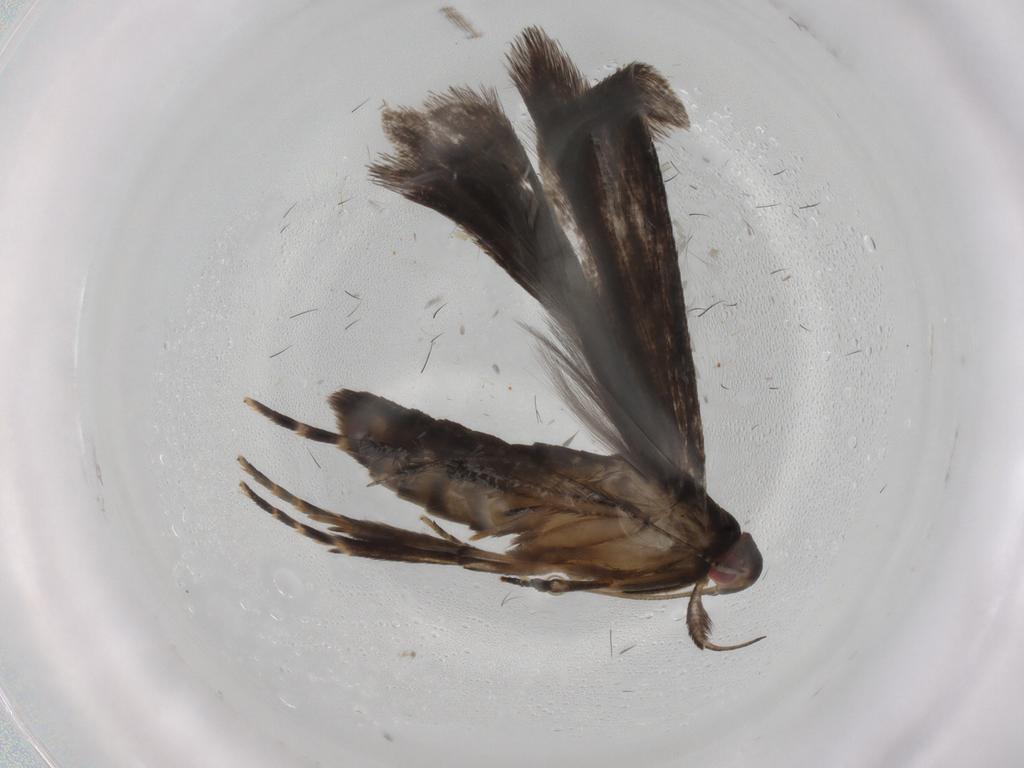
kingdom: Animalia
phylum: Arthropoda
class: Insecta
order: Lepidoptera
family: Gelechiidae
